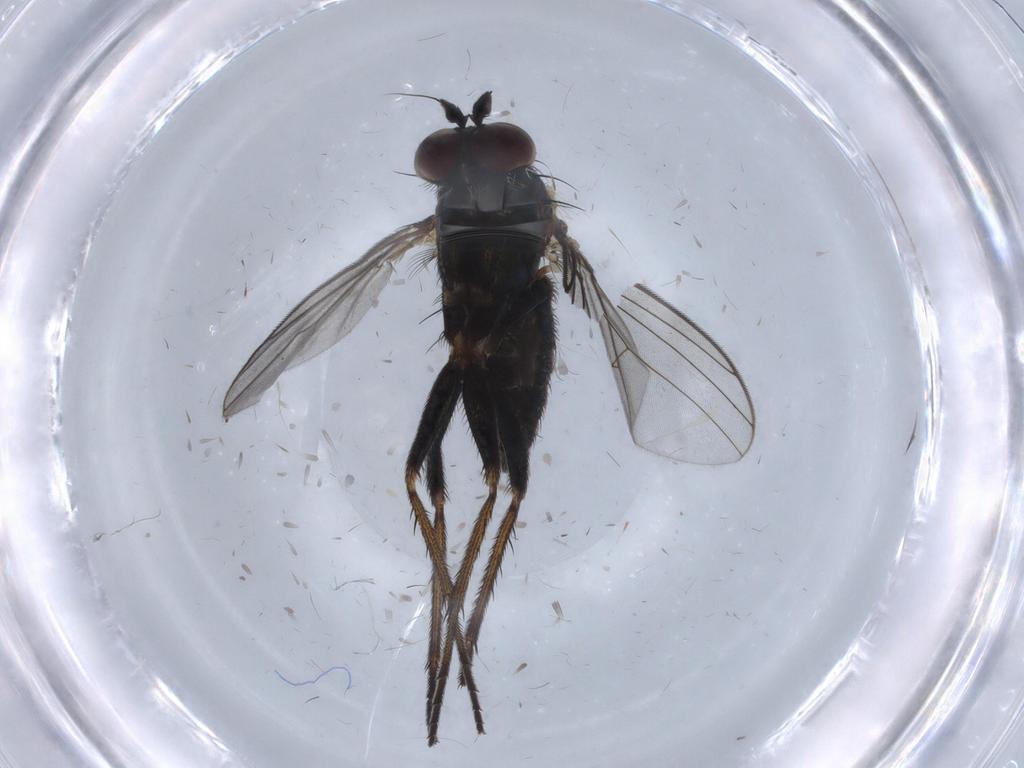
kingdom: Animalia
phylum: Arthropoda
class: Insecta
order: Diptera
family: Dolichopodidae
